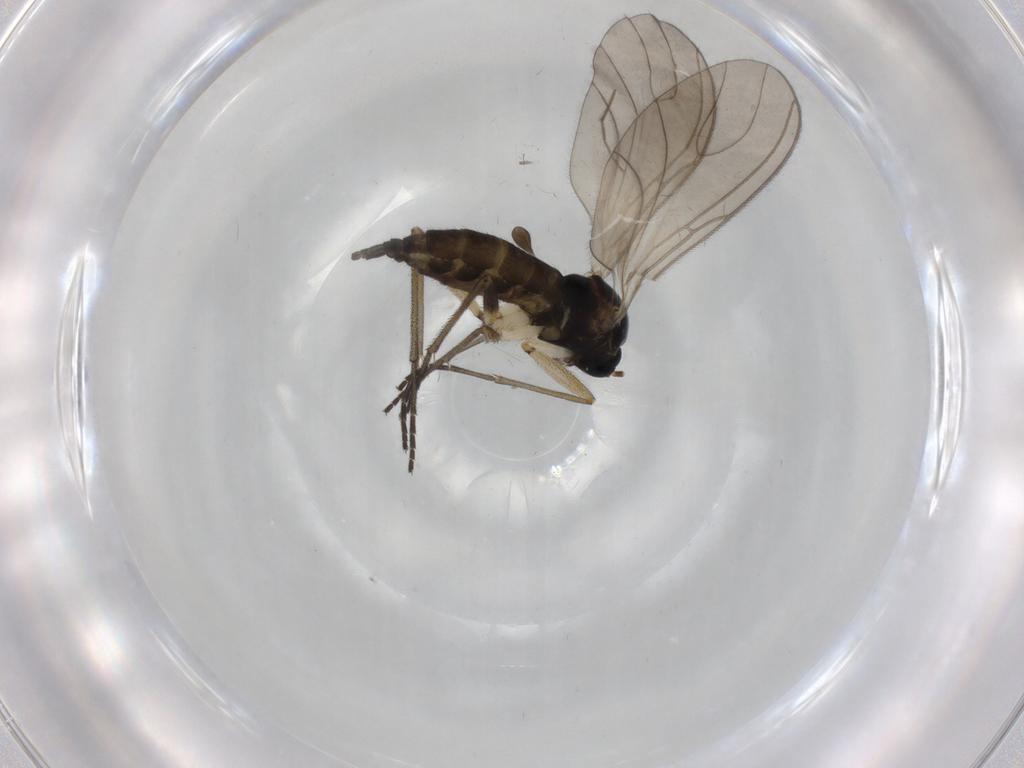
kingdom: Animalia
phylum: Arthropoda
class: Insecta
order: Diptera
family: Sciaridae
